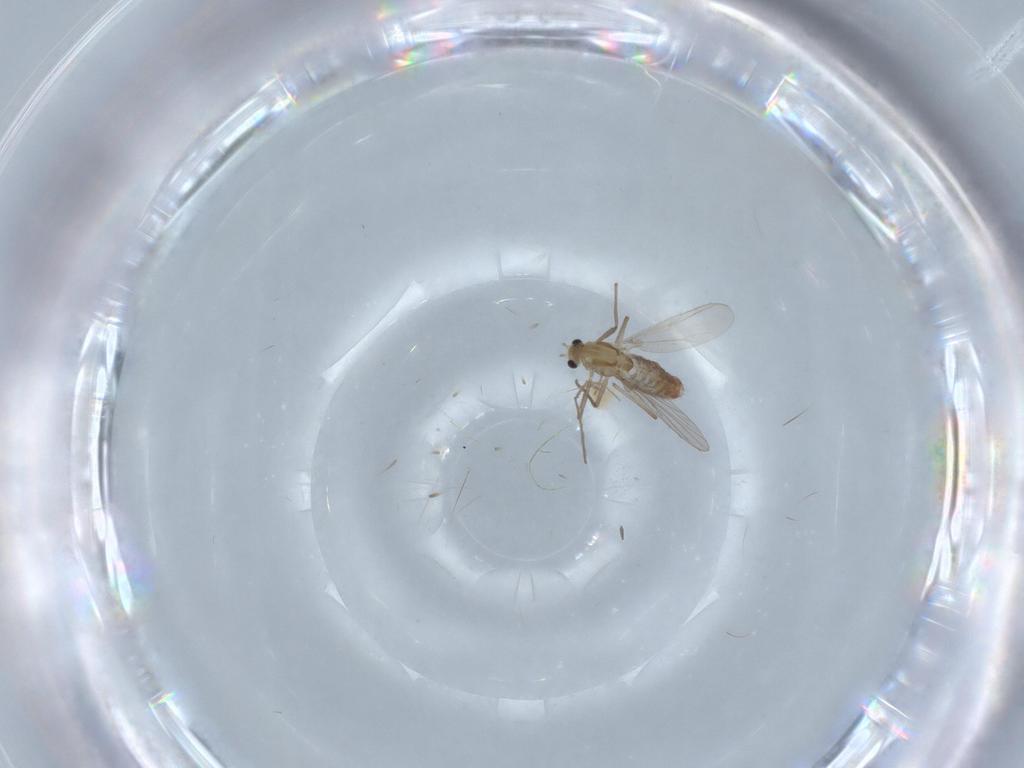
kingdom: Animalia
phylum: Arthropoda
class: Insecta
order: Diptera
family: Chironomidae
